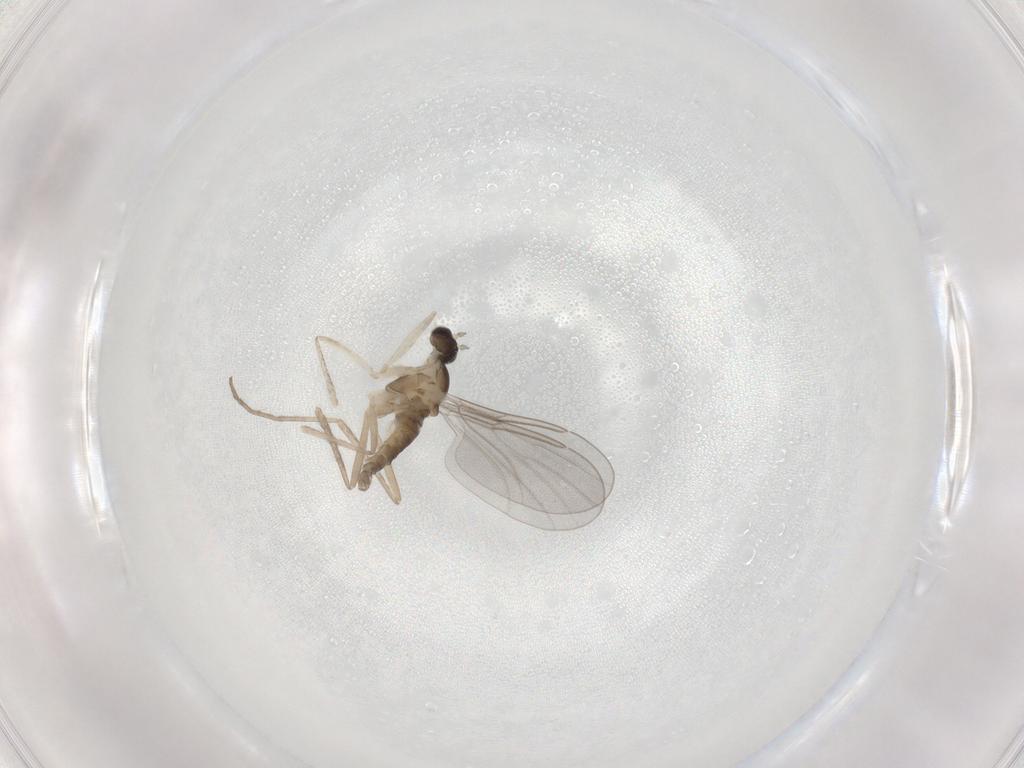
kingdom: Animalia
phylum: Arthropoda
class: Insecta
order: Diptera
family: Cecidomyiidae
